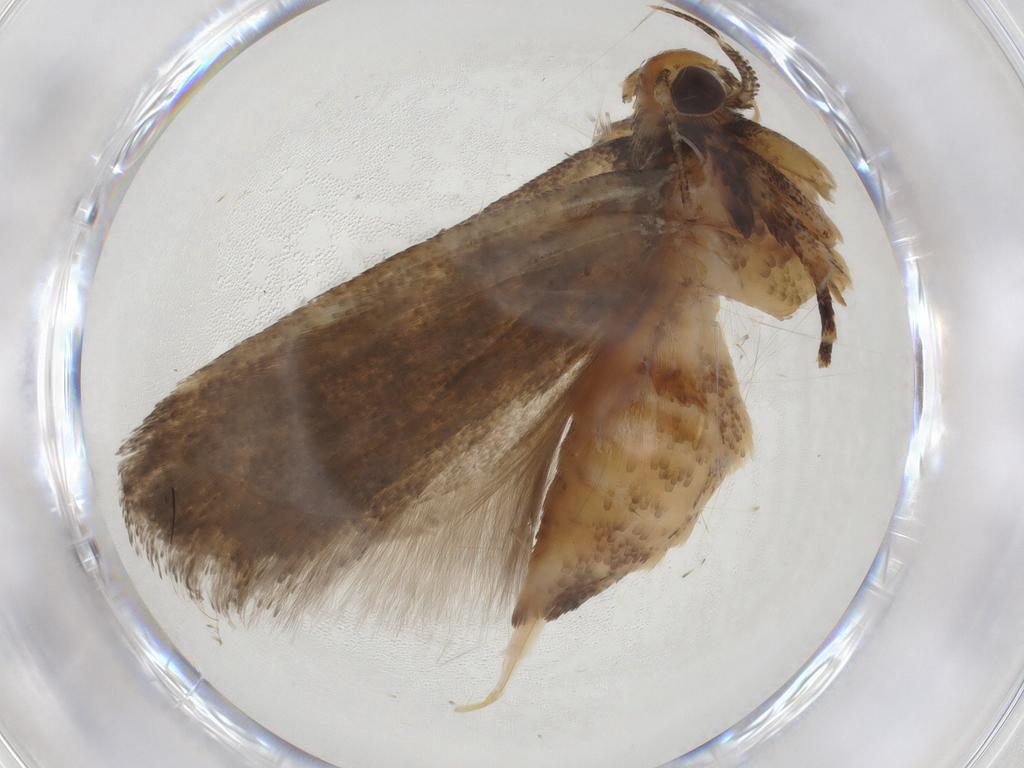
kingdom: Animalia
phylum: Arthropoda
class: Insecta
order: Lepidoptera
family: Gelechiidae
